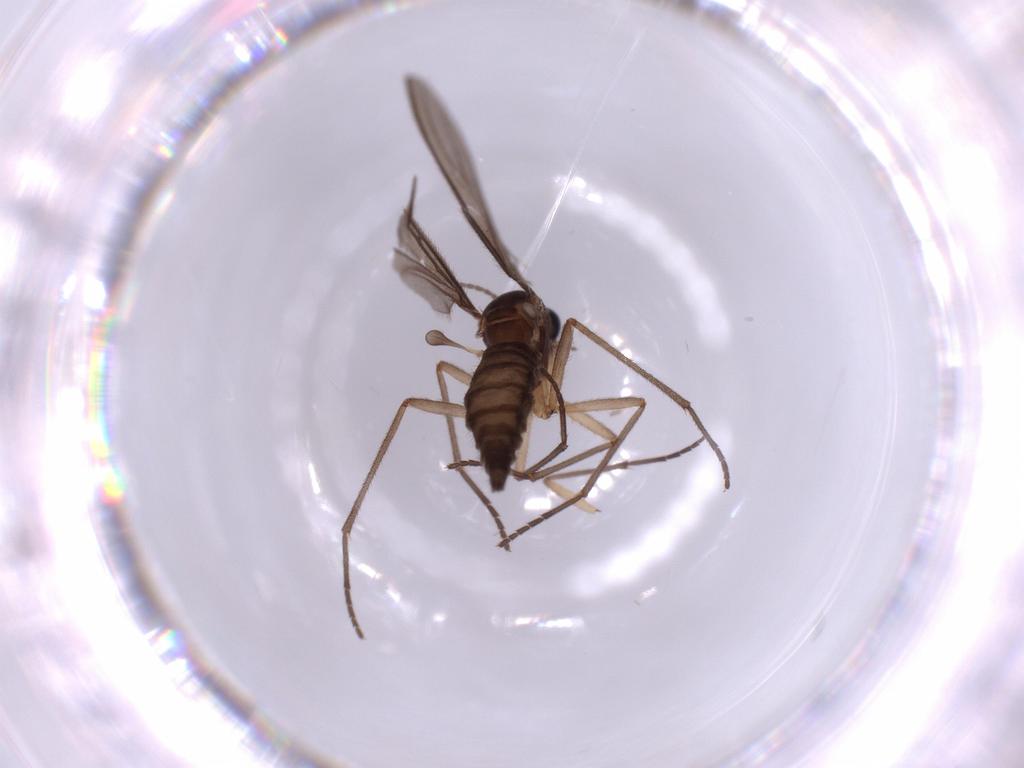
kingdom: Animalia
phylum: Arthropoda
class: Insecta
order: Diptera
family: Sciaridae
